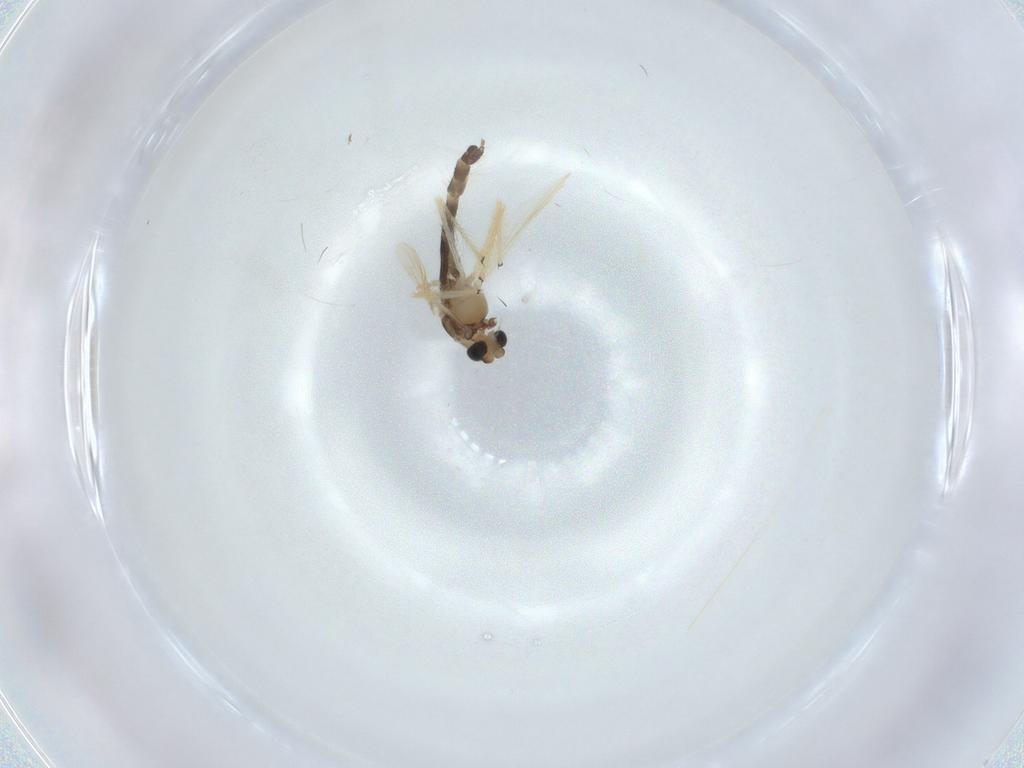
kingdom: Animalia
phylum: Arthropoda
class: Insecta
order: Diptera
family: Chironomidae
